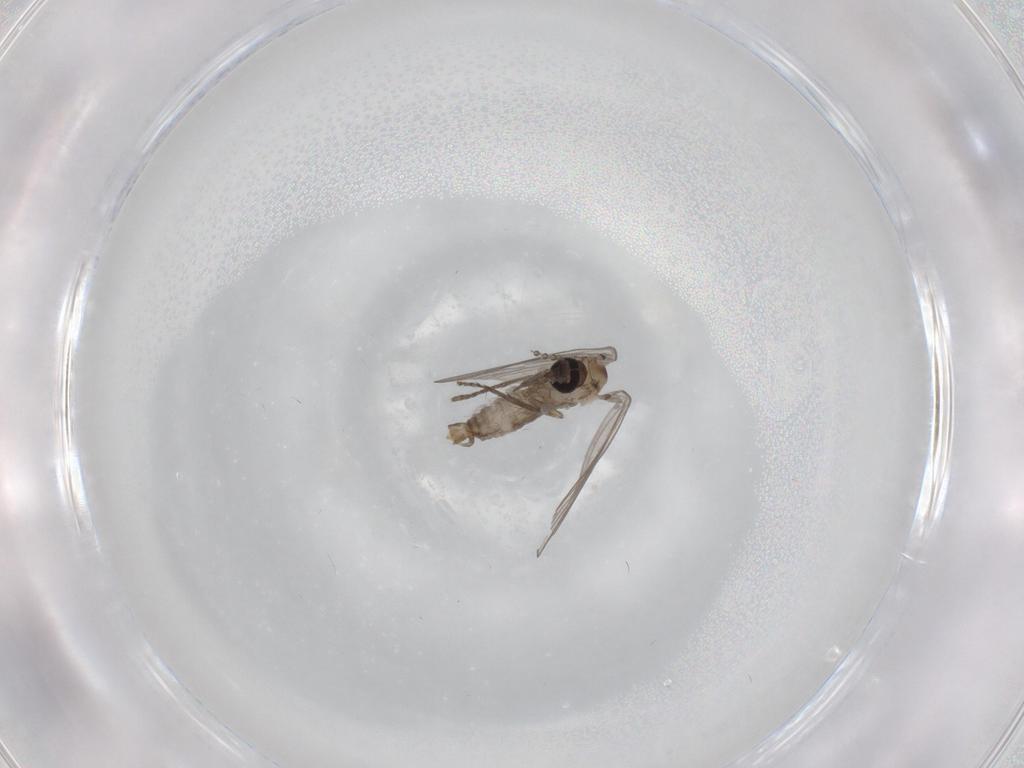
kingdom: Animalia
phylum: Arthropoda
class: Insecta
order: Diptera
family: Psychodidae
